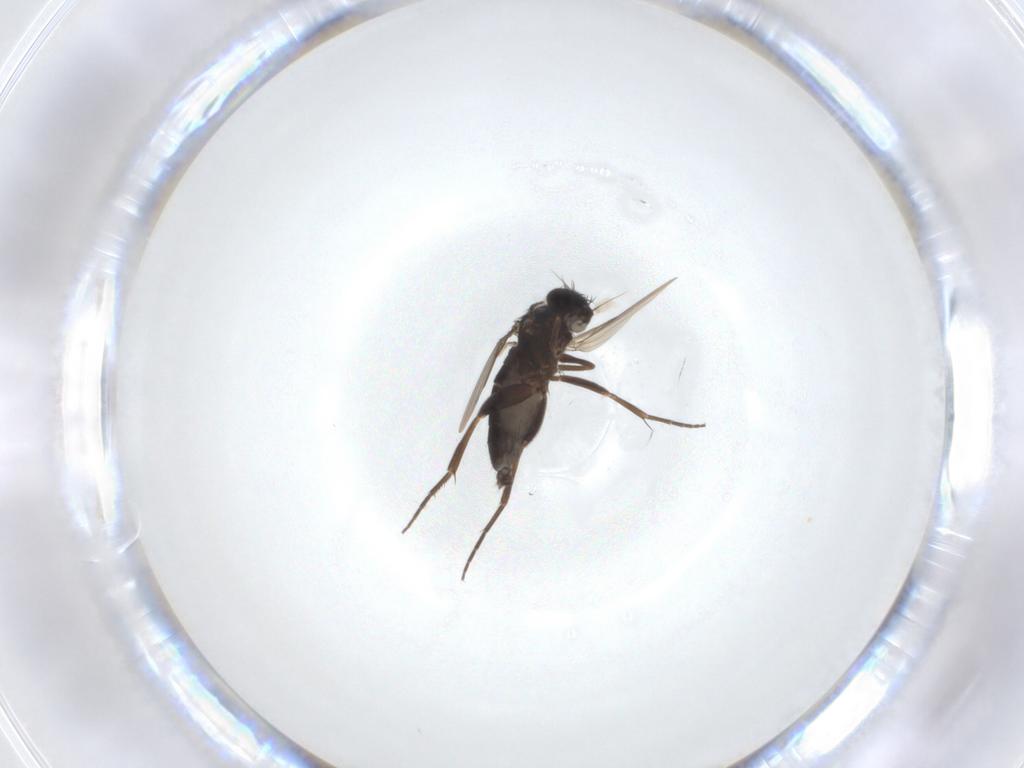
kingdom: Animalia
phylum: Arthropoda
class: Insecta
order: Diptera
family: Phoridae
